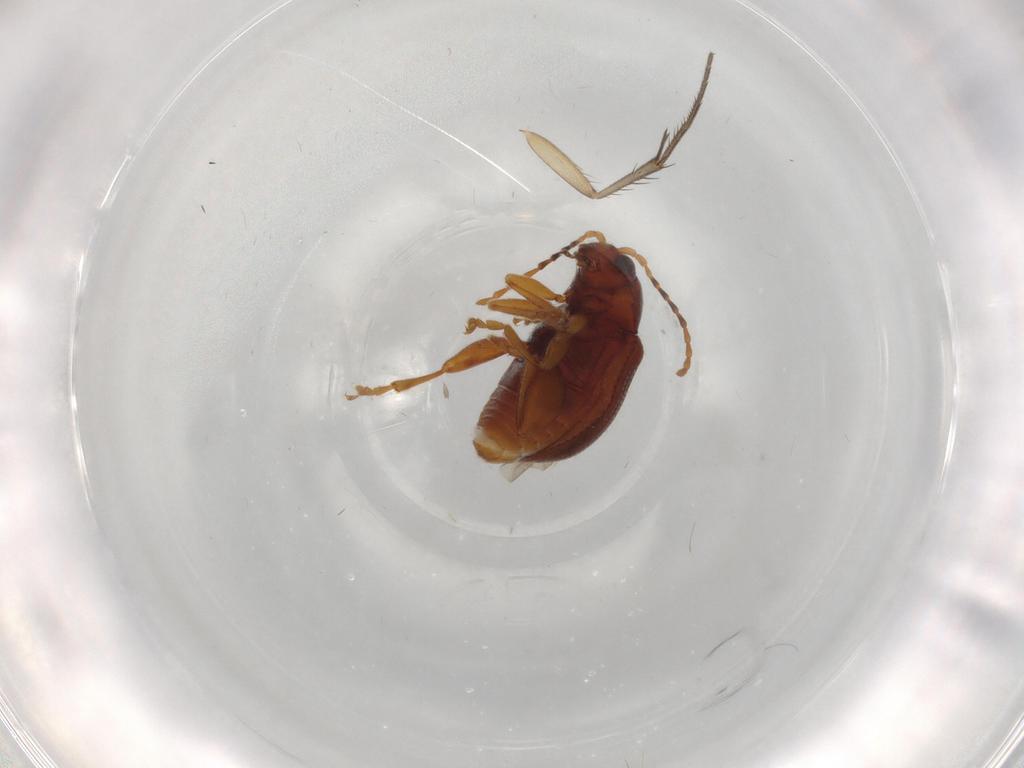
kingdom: Animalia
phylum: Arthropoda
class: Insecta
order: Coleoptera
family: Chrysomelidae
